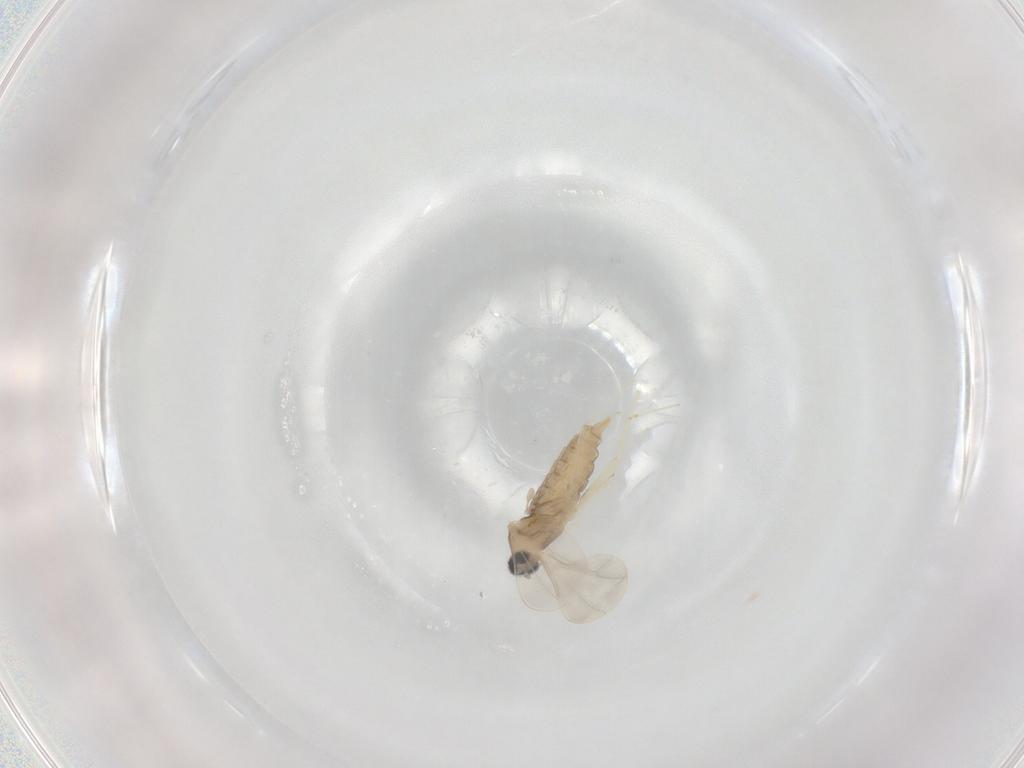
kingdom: Animalia
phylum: Arthropoda
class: Insecta
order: Diptera
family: Cecidomyiidae
